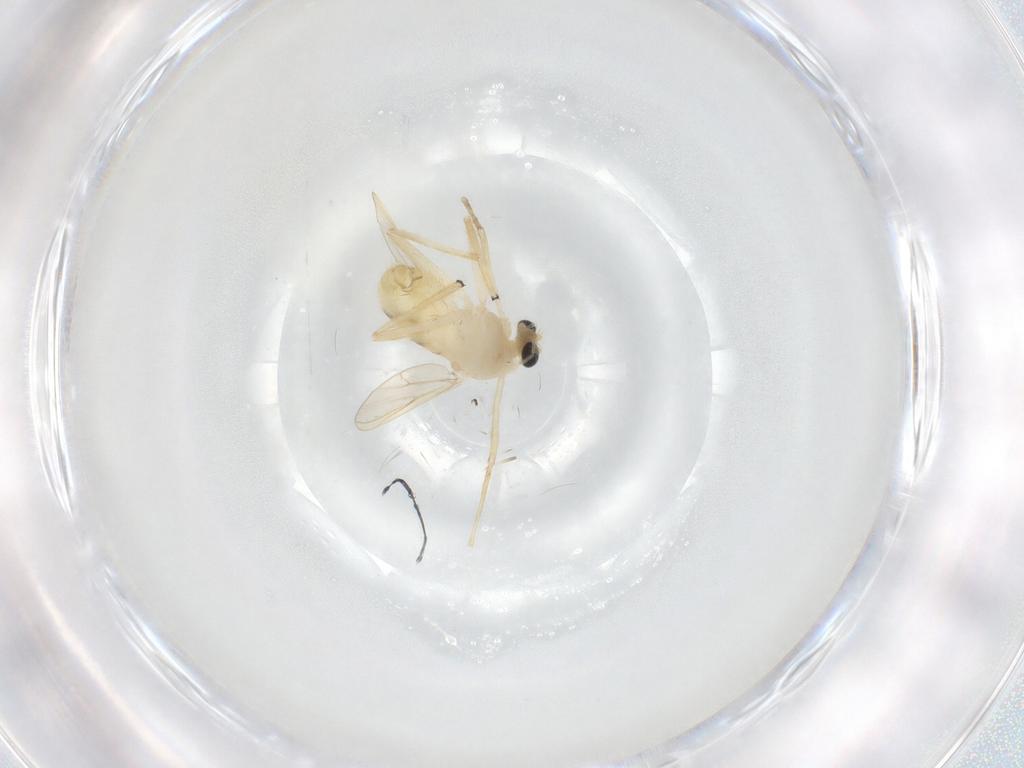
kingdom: Animalia
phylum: Arthropoda
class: Insecta
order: Diptera
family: Chironomidae
